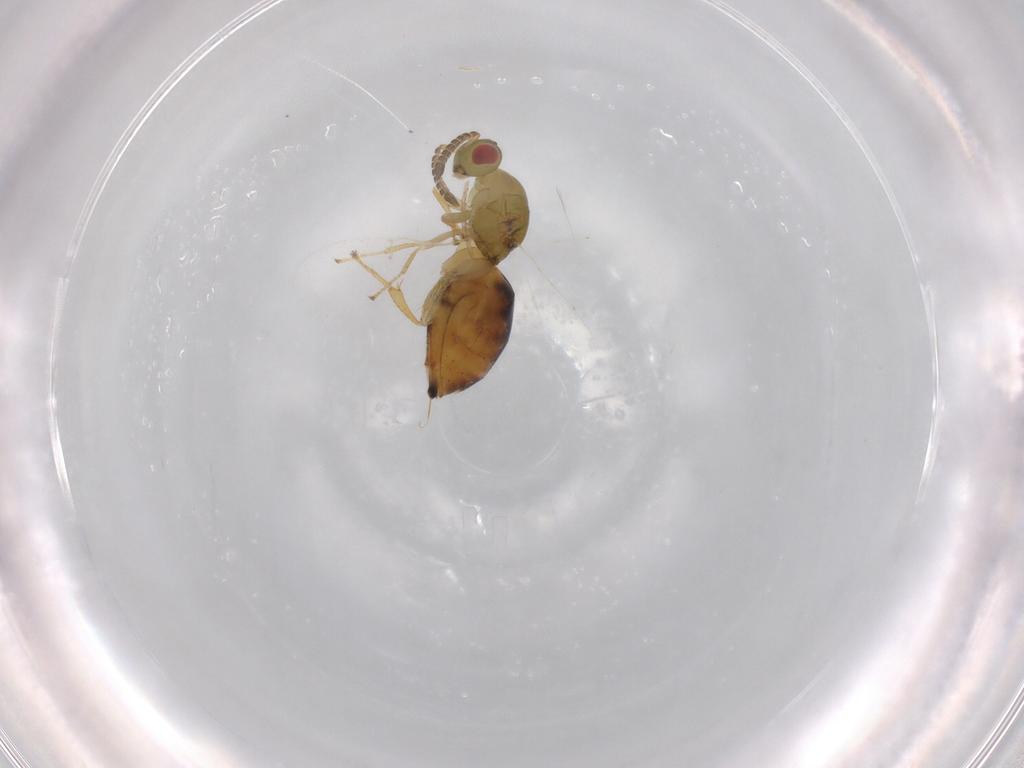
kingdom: Animalia
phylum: Arthropoda
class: Insecta
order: Hymenoptera
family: Agaonidae
